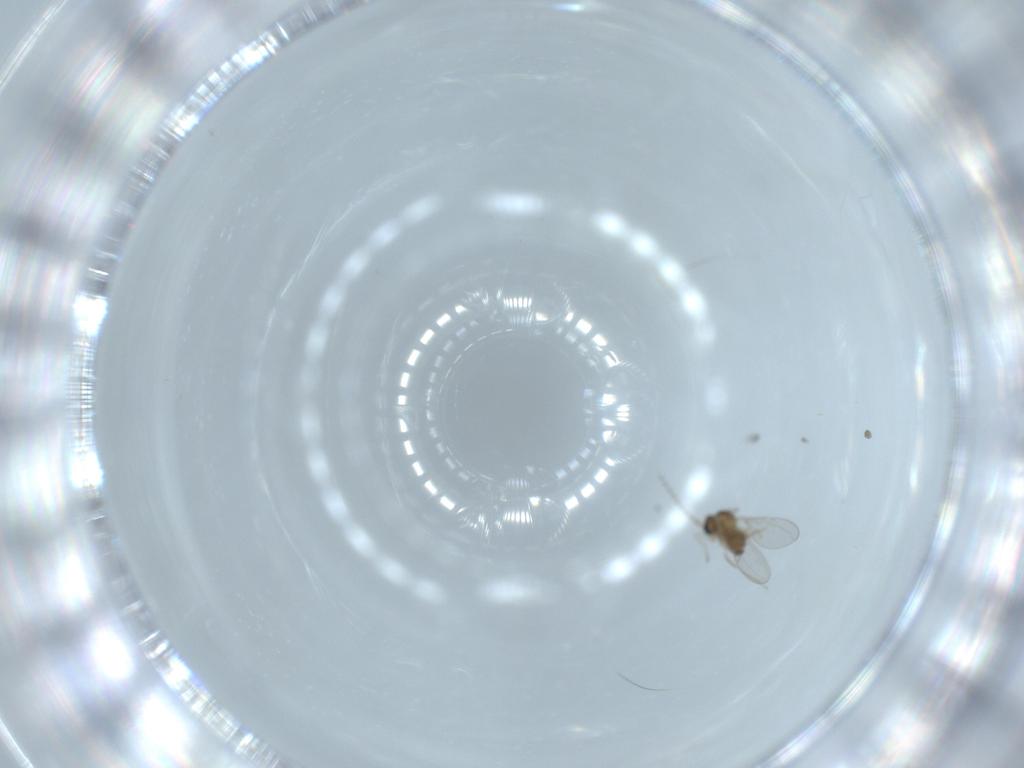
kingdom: Animalia
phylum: Arthropoda
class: Insecta
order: Diptera
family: Cecidomyiidae
